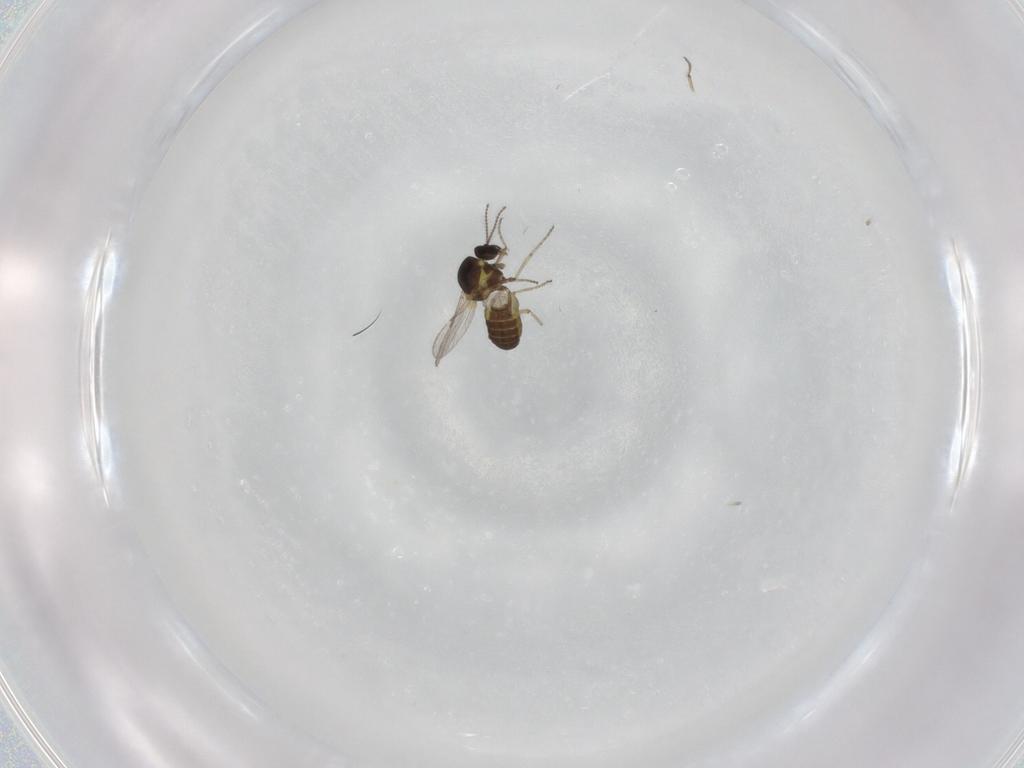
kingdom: Animalia
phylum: Arthropoda
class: Insecta
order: Diptera
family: Ceratopogonidae
